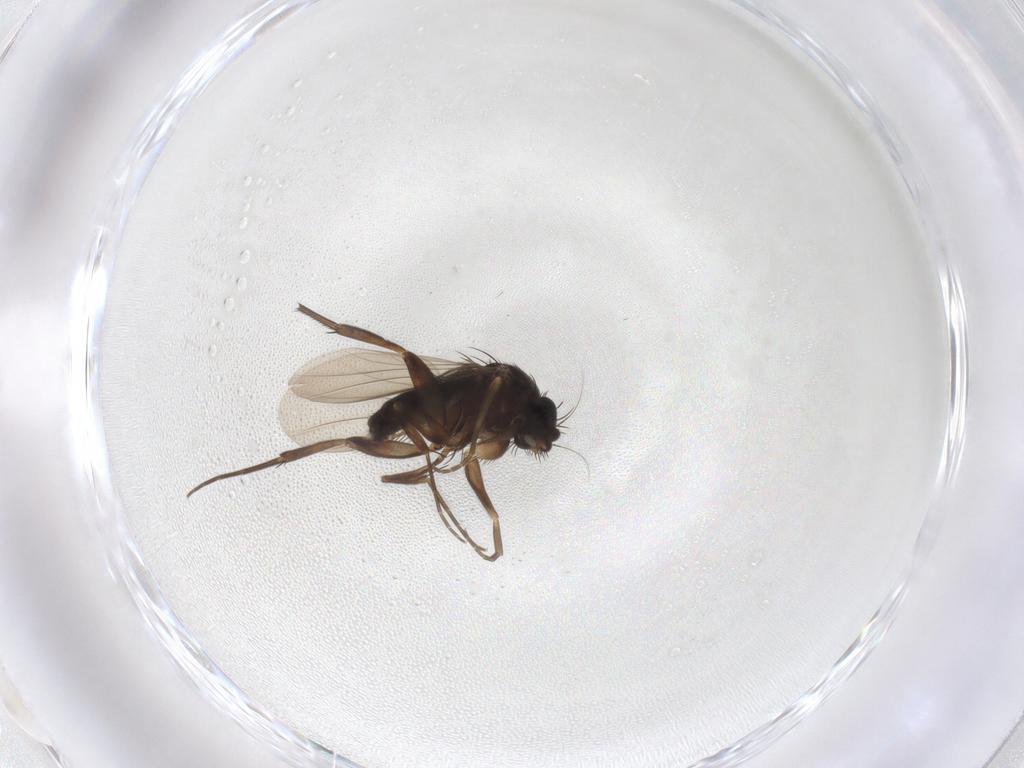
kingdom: Animalia
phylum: Arthropoda
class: Insecta
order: Diptera
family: Phoridae
